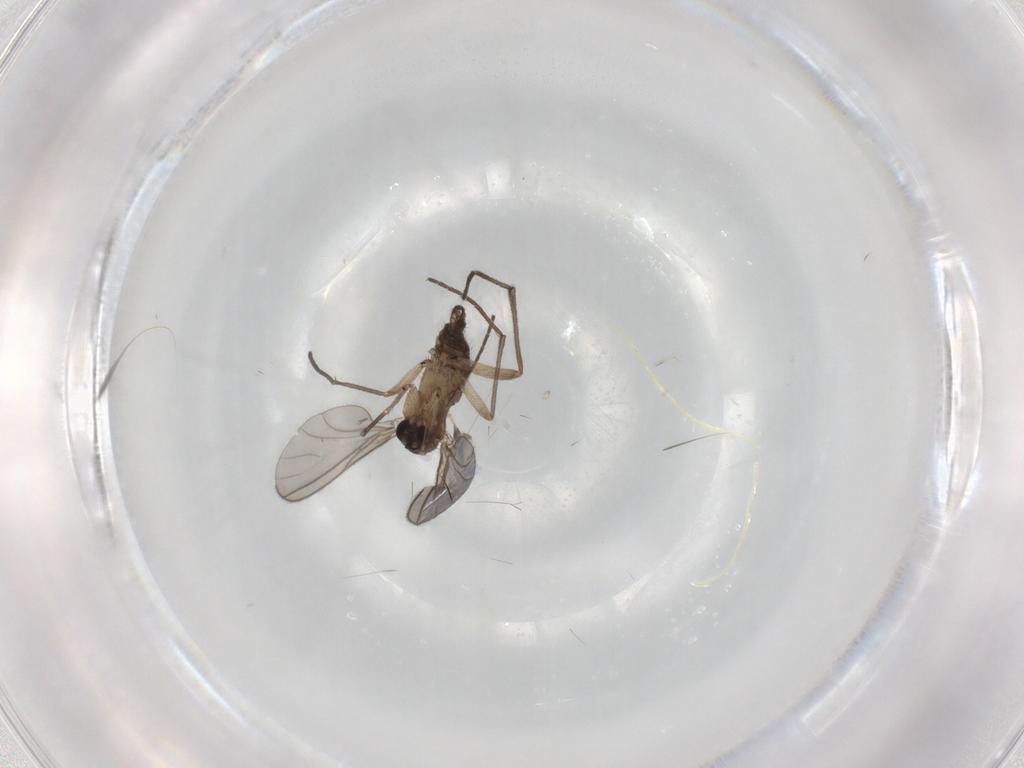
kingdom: Animalia
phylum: Arthropoda
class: Insecta
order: Diptera
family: Sciaridae
